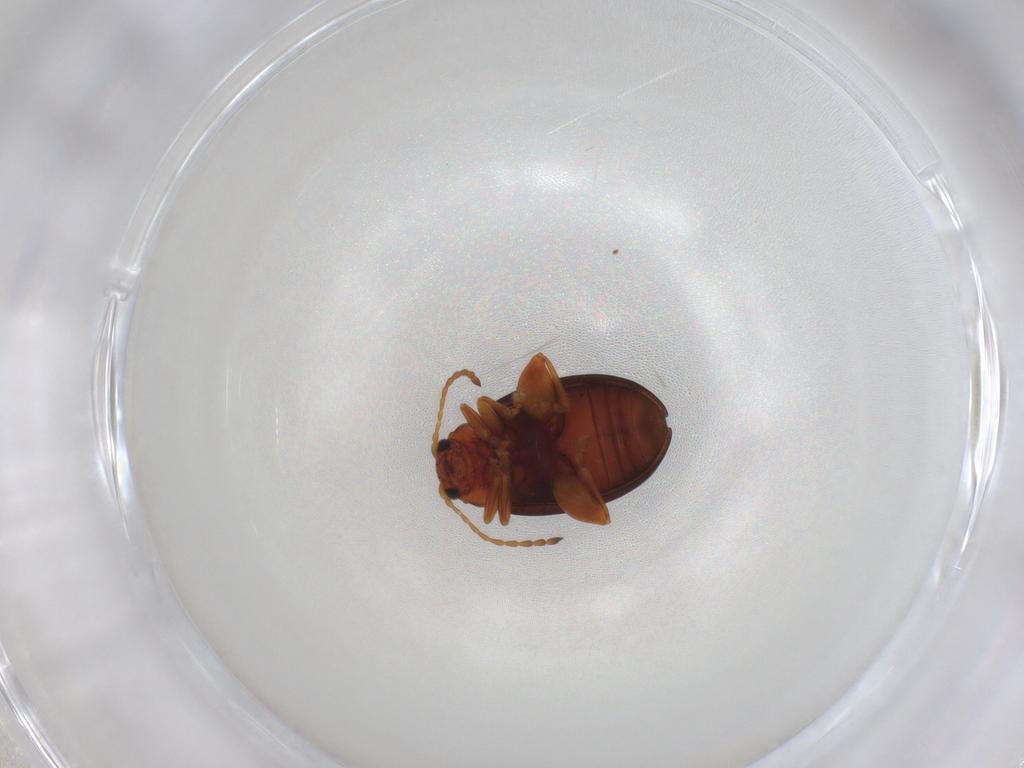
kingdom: Animalia
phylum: Arthropoda
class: Insecta
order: Coleoptera
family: Chrysomelidae
